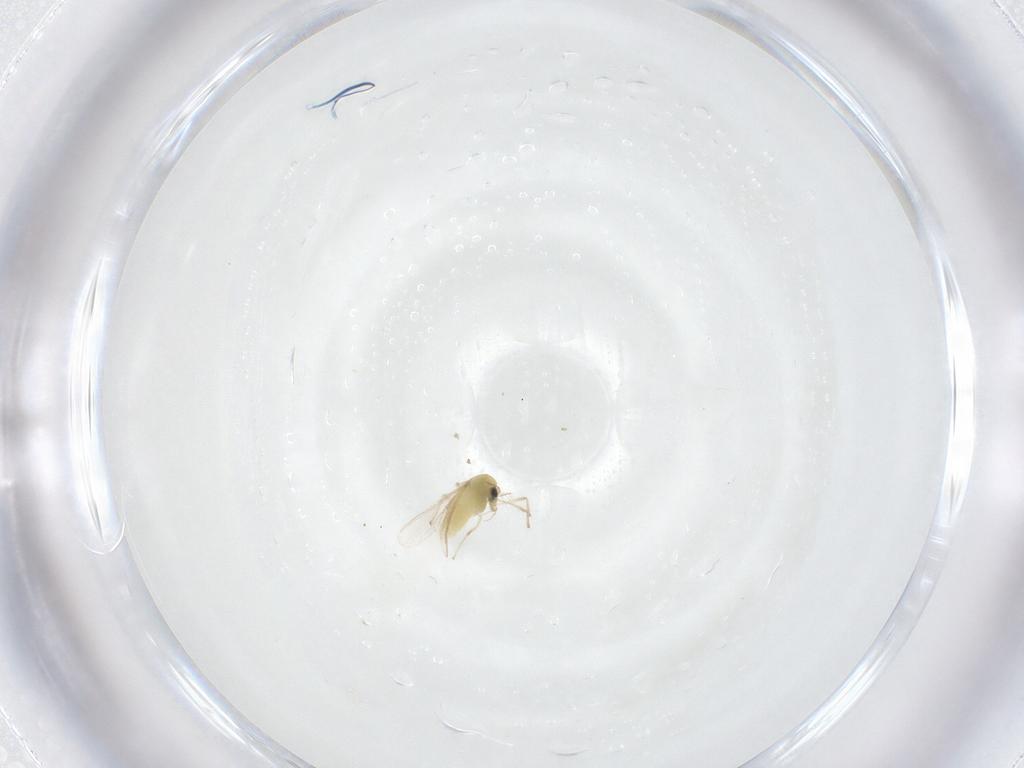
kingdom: Animalia
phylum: Arthropoda
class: Insecta
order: Diptera
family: Chironomidae
